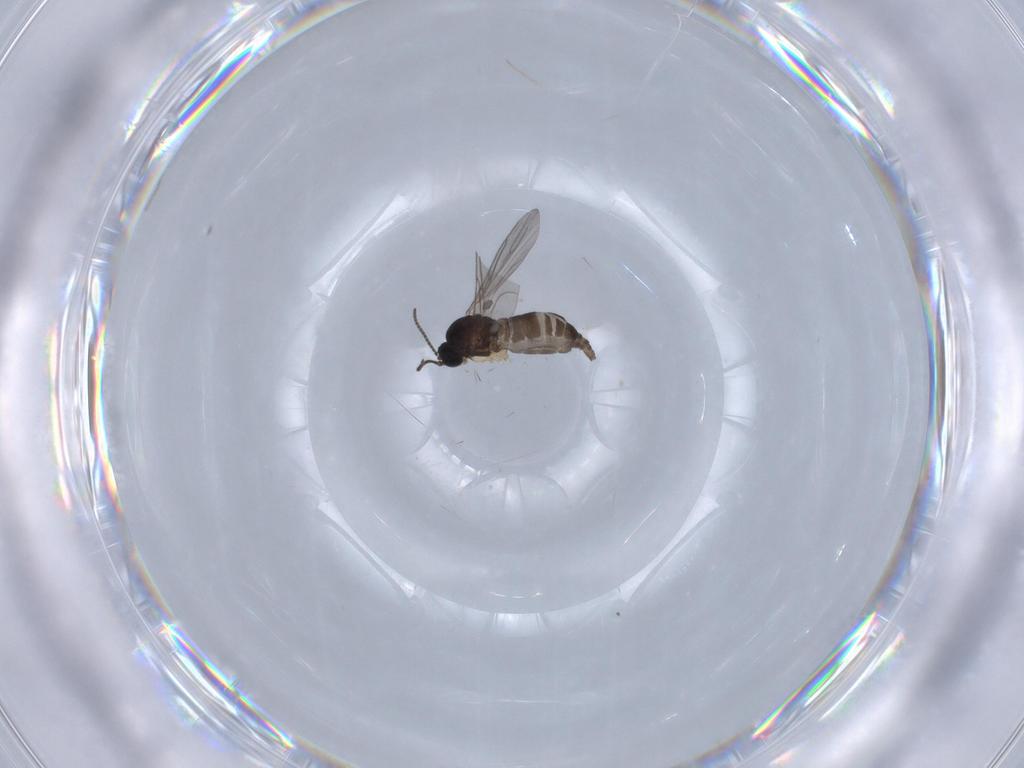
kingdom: Animalia
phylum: Arthropoda
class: Insecta
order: Diptera
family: Sciaridae
